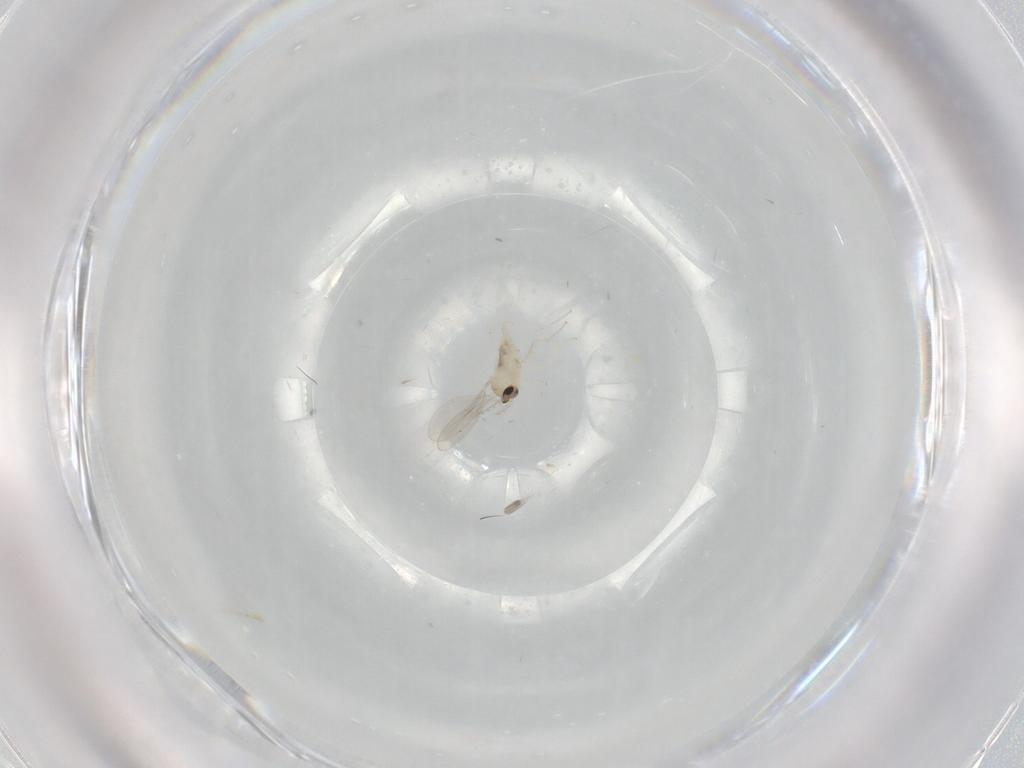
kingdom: Animalia
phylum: Arthropoda
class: Insecta
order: Diptera
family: Cecidomyiidae
